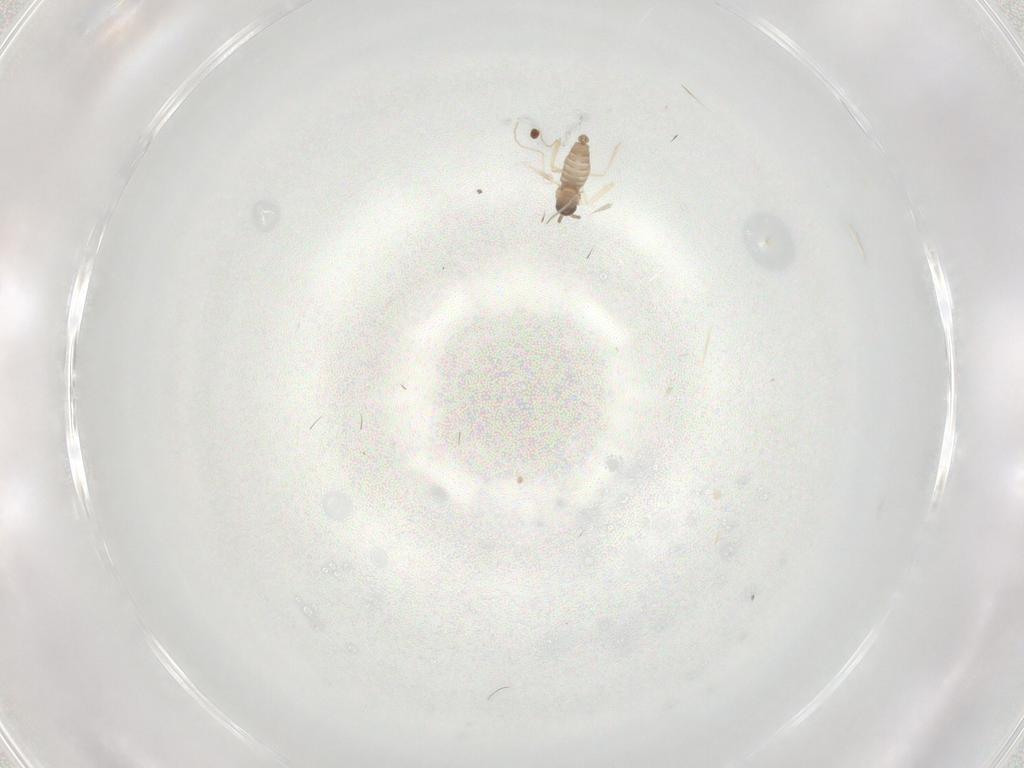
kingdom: Animalia
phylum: Arthropoda
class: Insecta
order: Diptera
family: Cecidomyiidae
